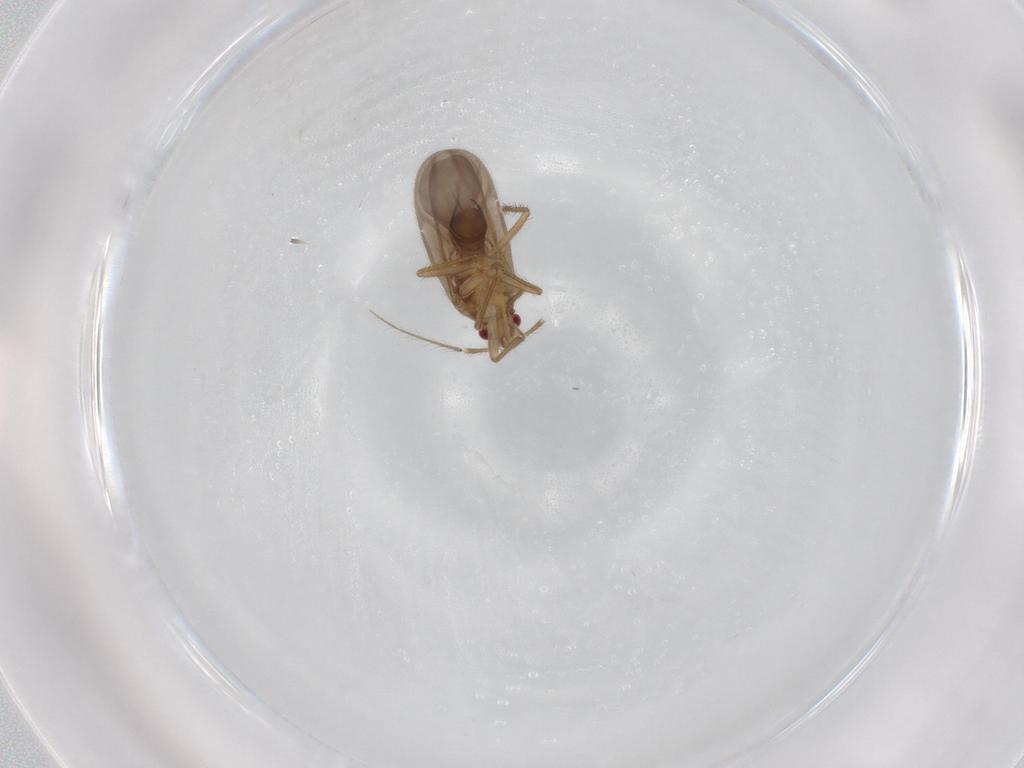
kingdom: Animalia
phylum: Arthropoda
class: Insecta
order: Hemiptera
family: Ceratocombidae
